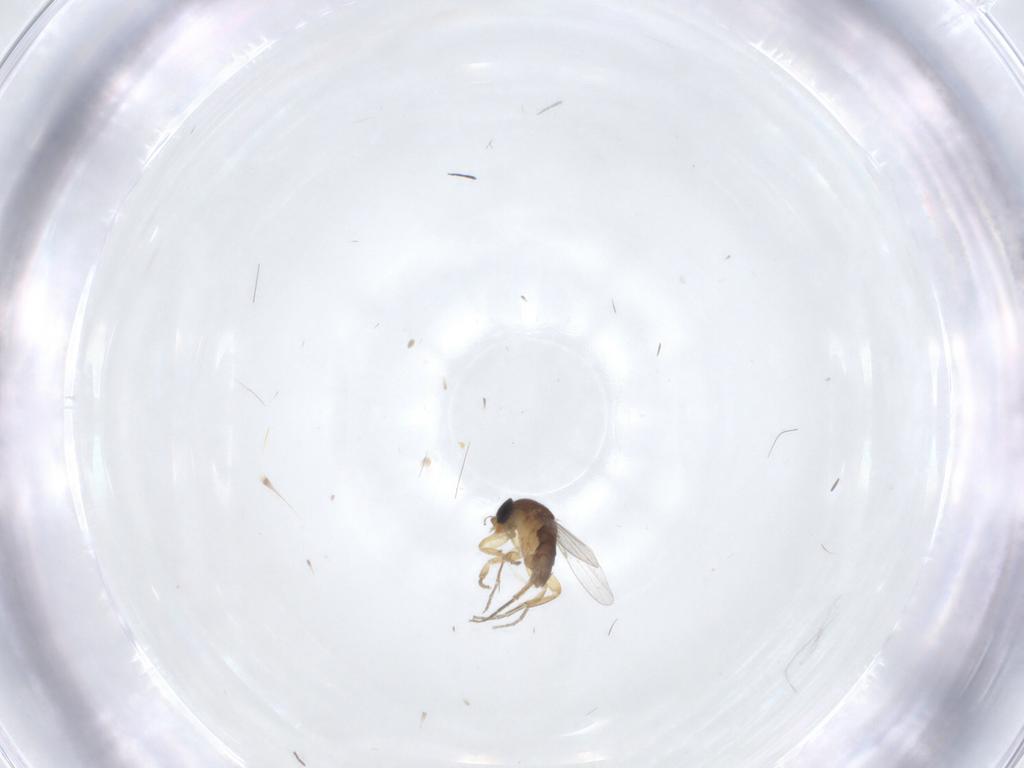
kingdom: Animalia
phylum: Arthropoda
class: Insecta
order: Diptera
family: Sciaridae
